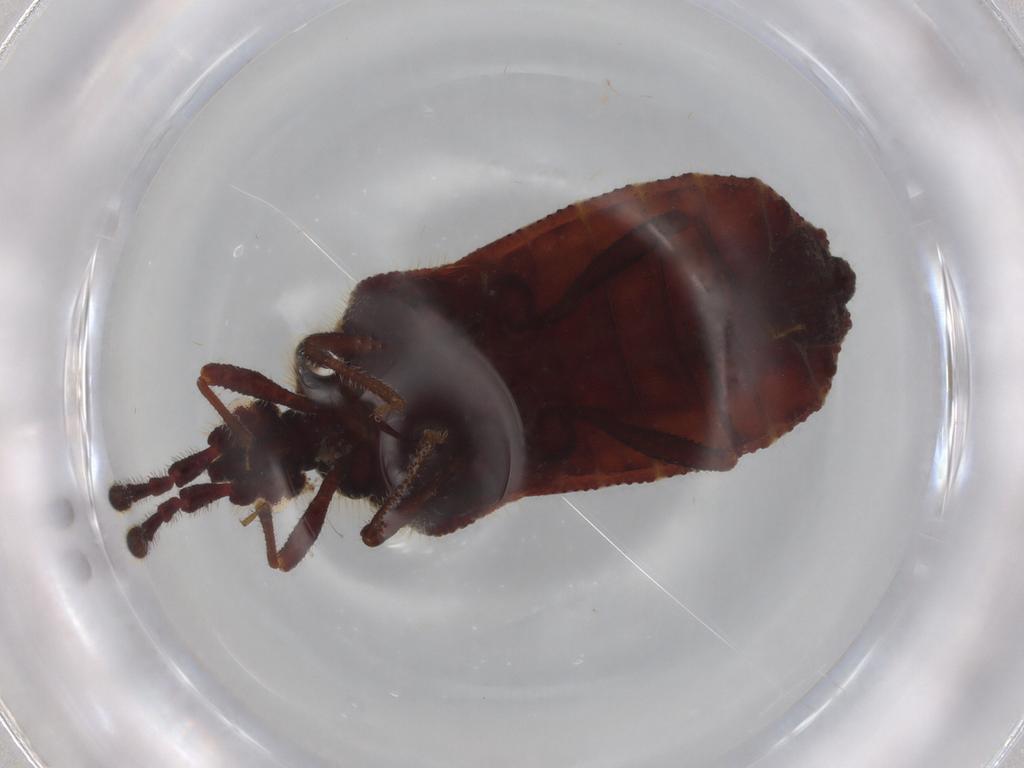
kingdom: Animalia
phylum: Arthropoda
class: Insecta
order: Hemiptera
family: Aradidae
